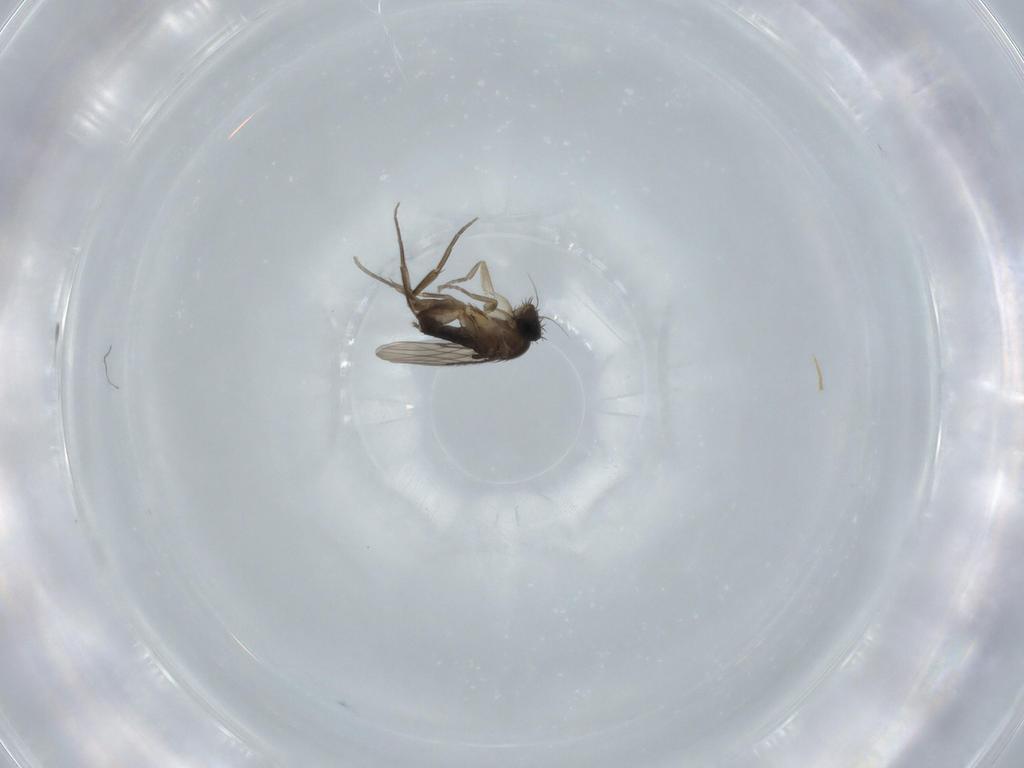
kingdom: Animalia
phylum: Arthropoda
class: Insecta
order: Diptera
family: Phoridae
